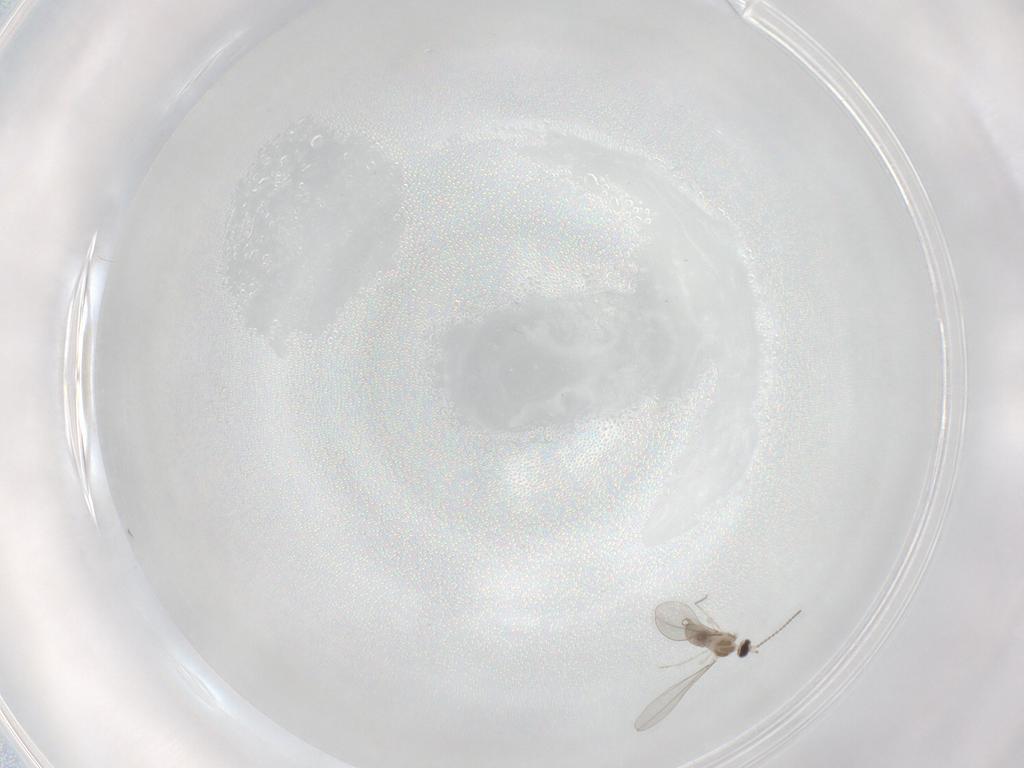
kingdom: Animalia
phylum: Arthropoda
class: Insecta
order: Diptera
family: Cecidomyiidae
